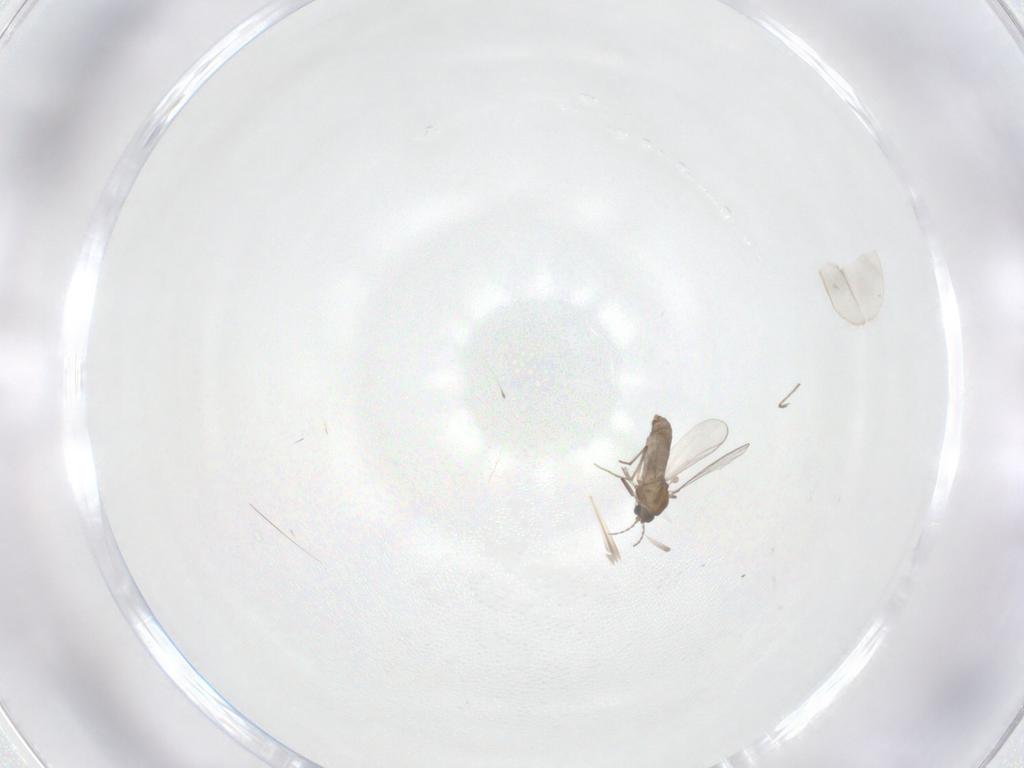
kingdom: Animalia
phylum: Arthropoda
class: Insecta
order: Diptera
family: Cecidomyiidae
